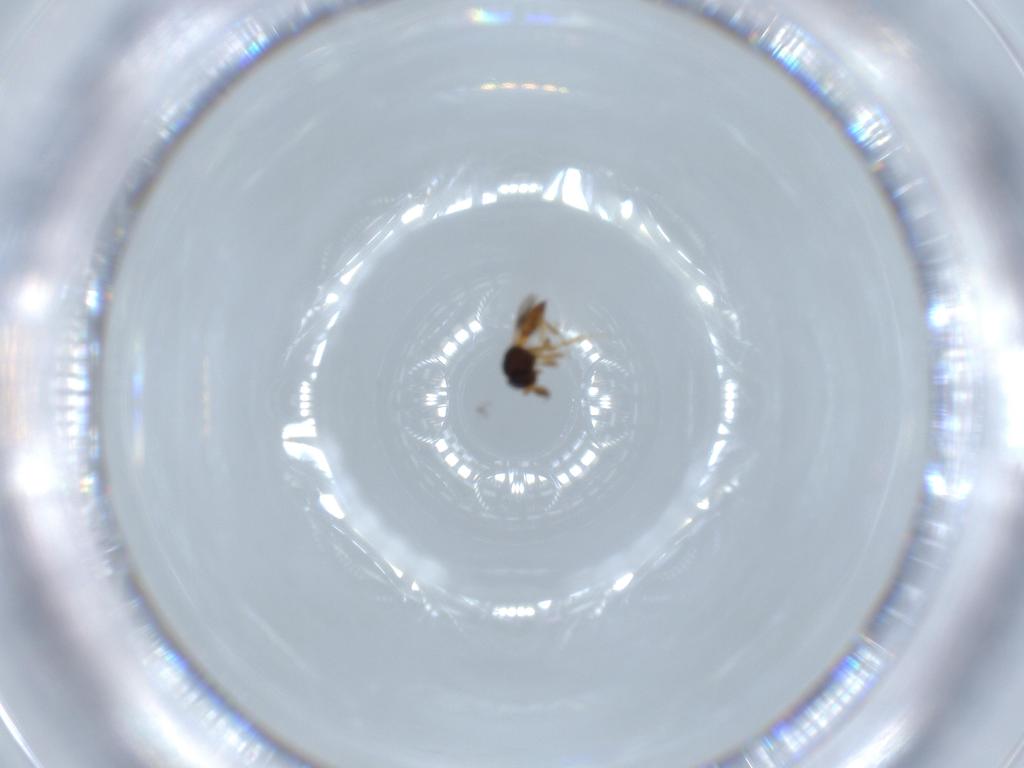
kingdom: Animalia
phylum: Arthropoda
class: Insecta
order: Hymenoptera
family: Scelionidae
